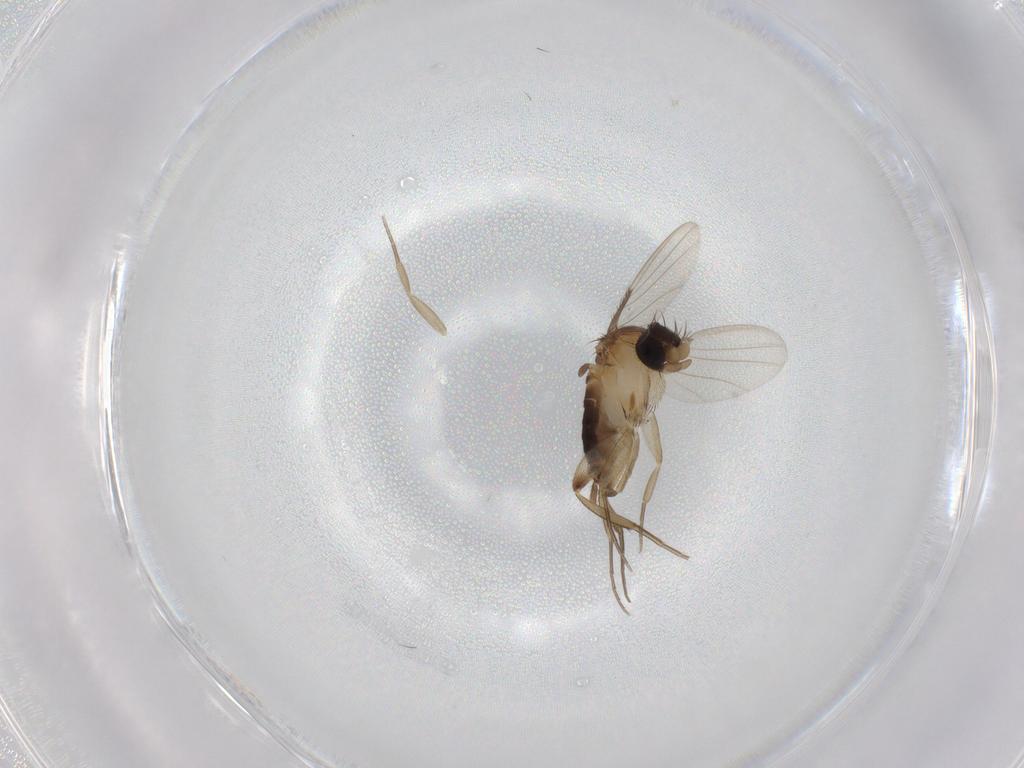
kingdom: Animalia
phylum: Arthropoda
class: Insecta
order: Diptera
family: Phoridae
